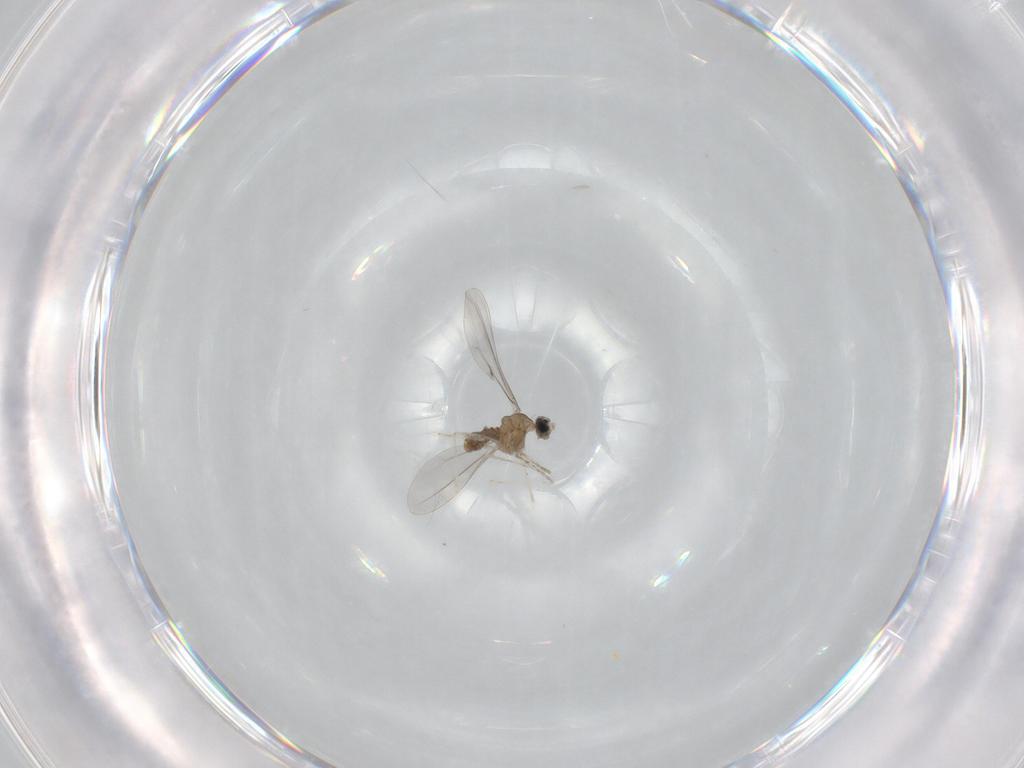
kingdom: Animalia
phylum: Arthropoda
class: Insecta
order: Diptera
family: Cecidomyiidae
